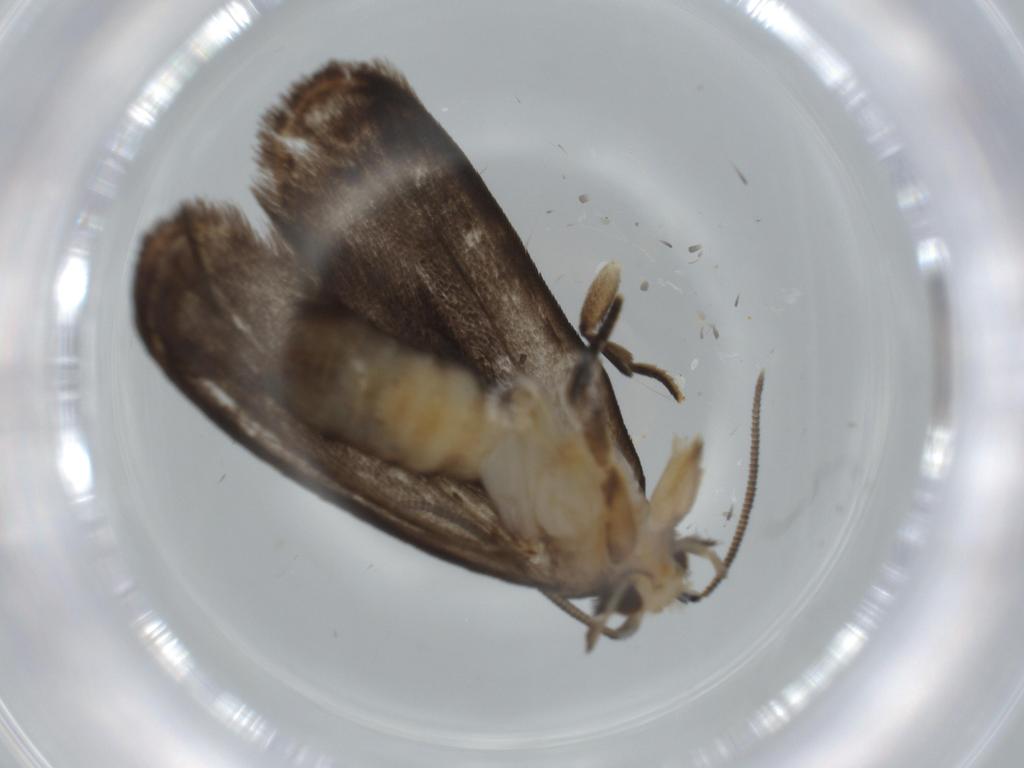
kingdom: Animalia
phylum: Arthropoda
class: Insecta
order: Lepidoptera
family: Dryadaulidae
